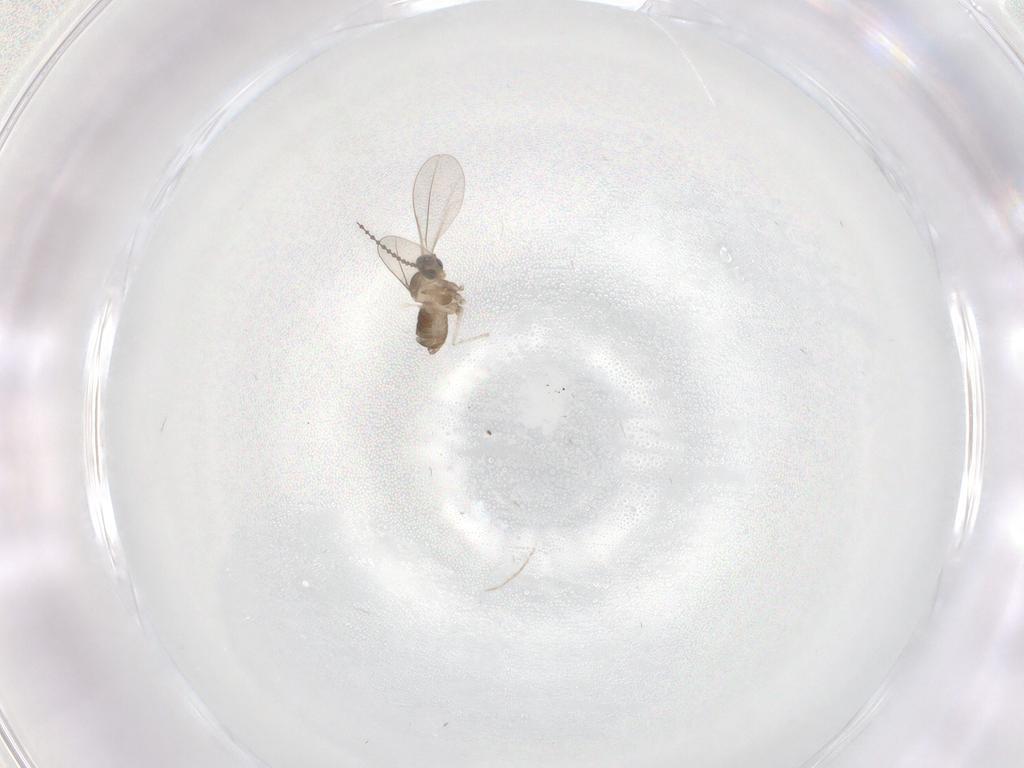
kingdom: Animalia
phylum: Arthropoda
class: Insecta
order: Diptera
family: Cecidomyiidae
